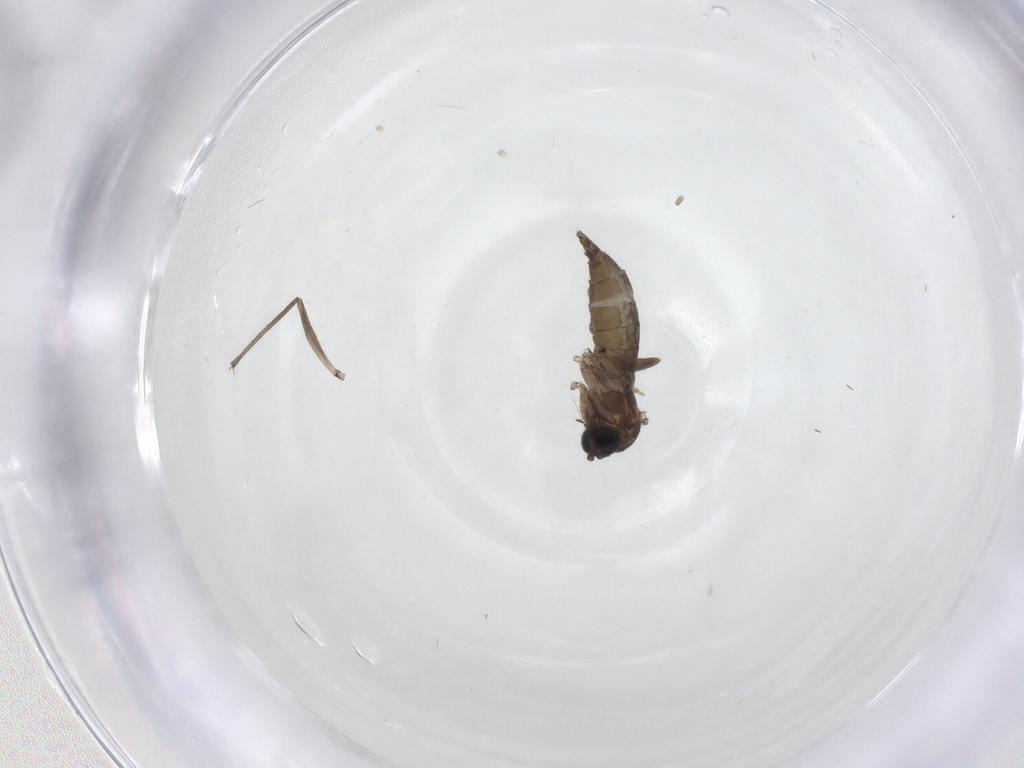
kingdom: Animalia
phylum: Arthropoda
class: Insecta
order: Diptera
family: Sciaridae
